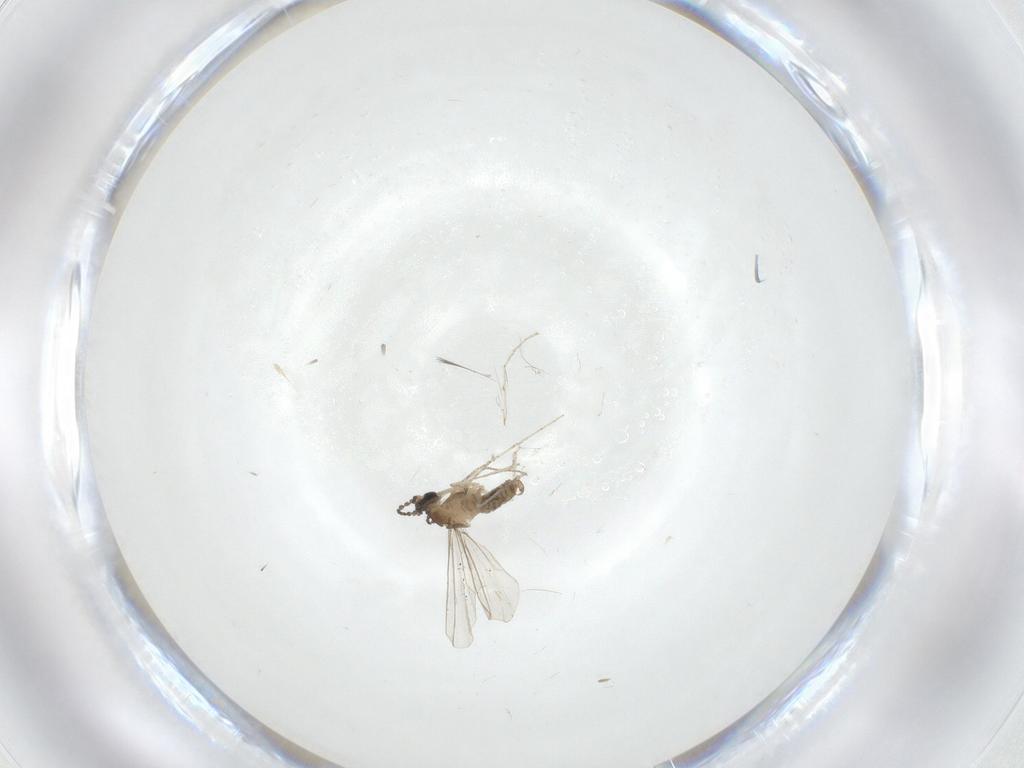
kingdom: Animalia
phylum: Arthropoda
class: Insecta
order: Diptera
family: Cecidomyiidae
